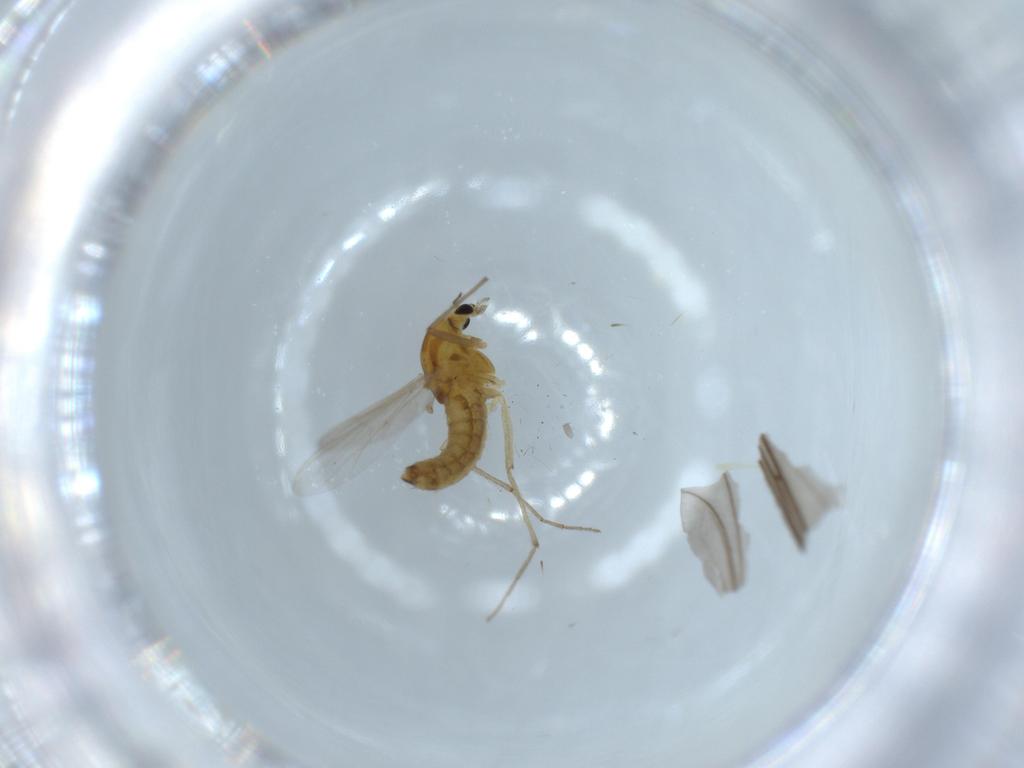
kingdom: Animalia
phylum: Arthropoda
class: Insecta
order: Diptera
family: Sciaridae
